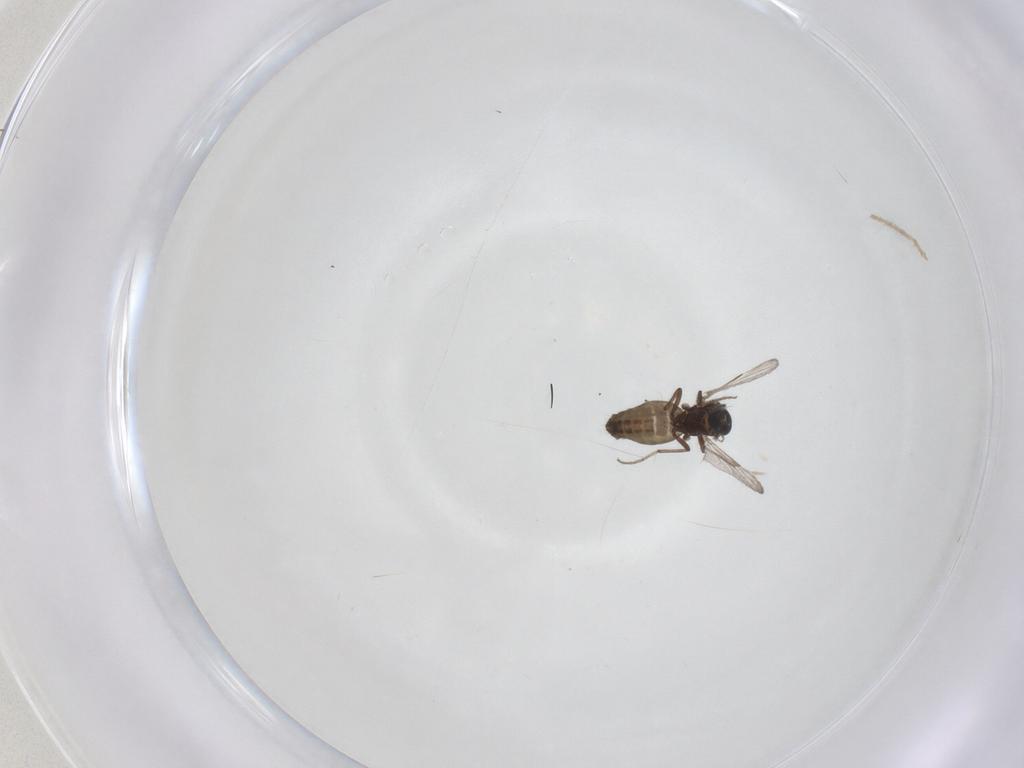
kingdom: Animalia
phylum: Arthropoda
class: Insecta
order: Diptera
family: Ceratopogonidae
